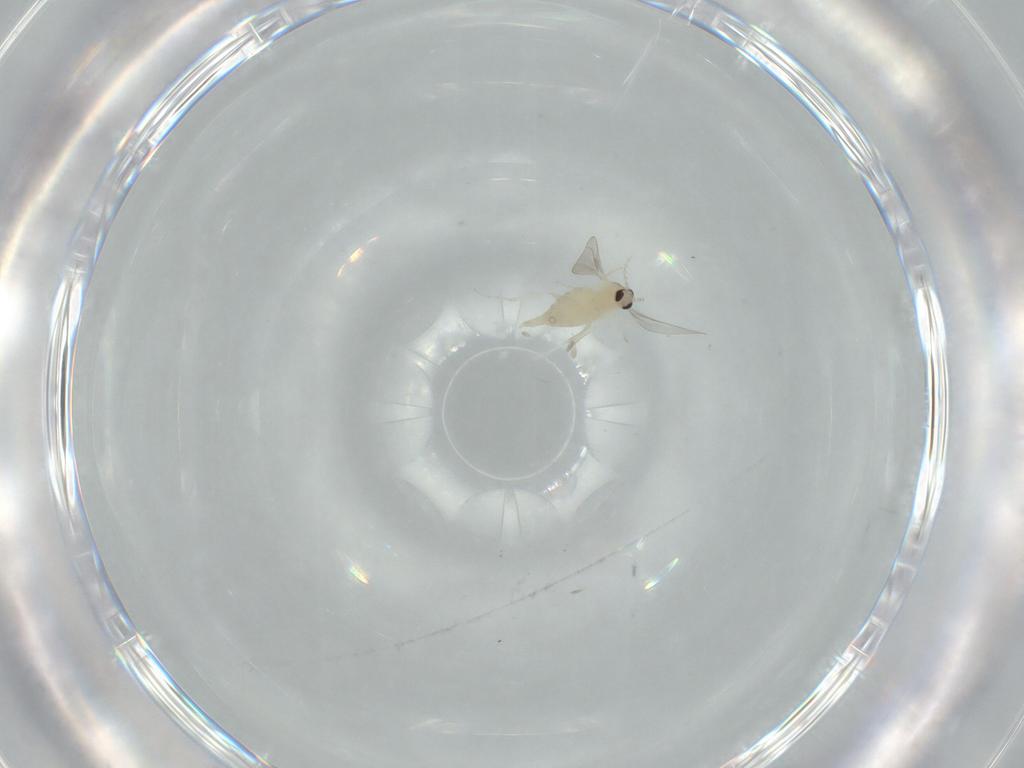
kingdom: Animalia
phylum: Arthropoda
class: Insecta
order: Diptera
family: Cecidomyiidae
